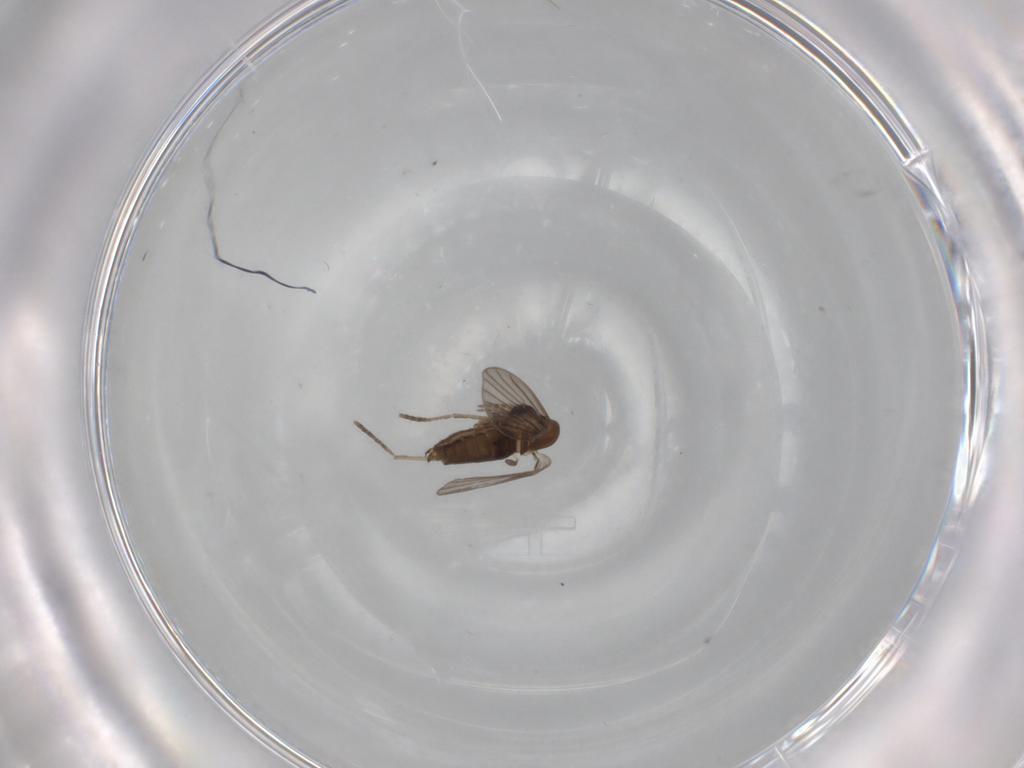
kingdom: Animalia
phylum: Arthropoda
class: Insecta
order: Diptera
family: Sciaridae
